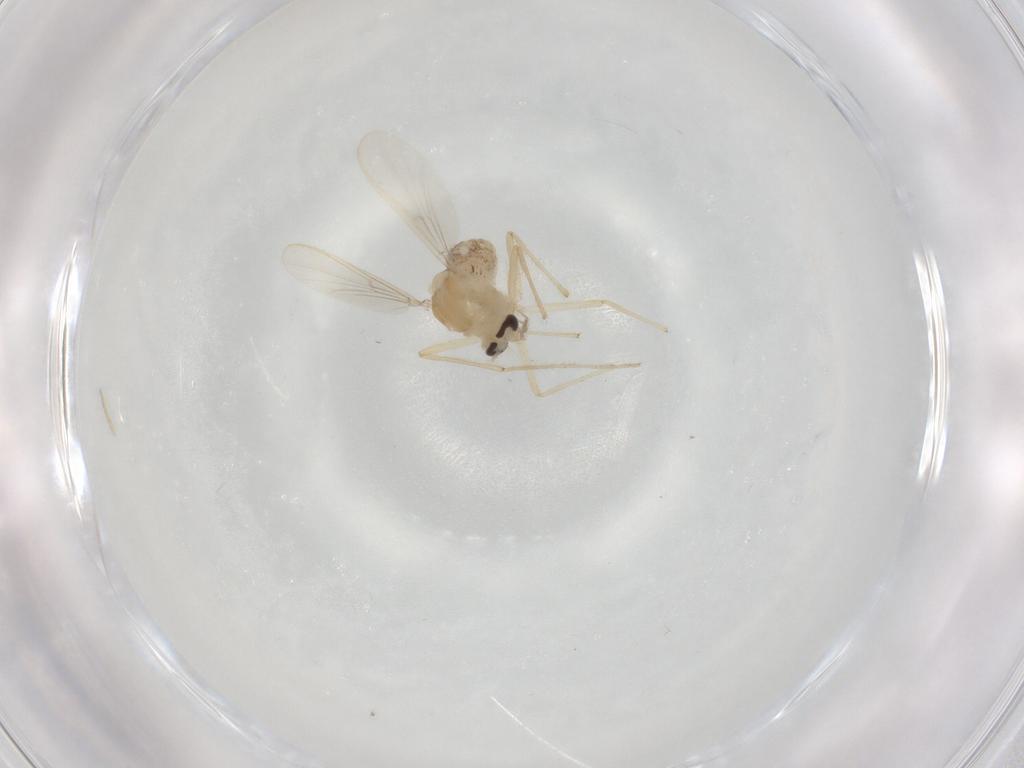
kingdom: Animalia
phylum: Arthropoda
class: Insecta
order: Diptera
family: Chironomidae
